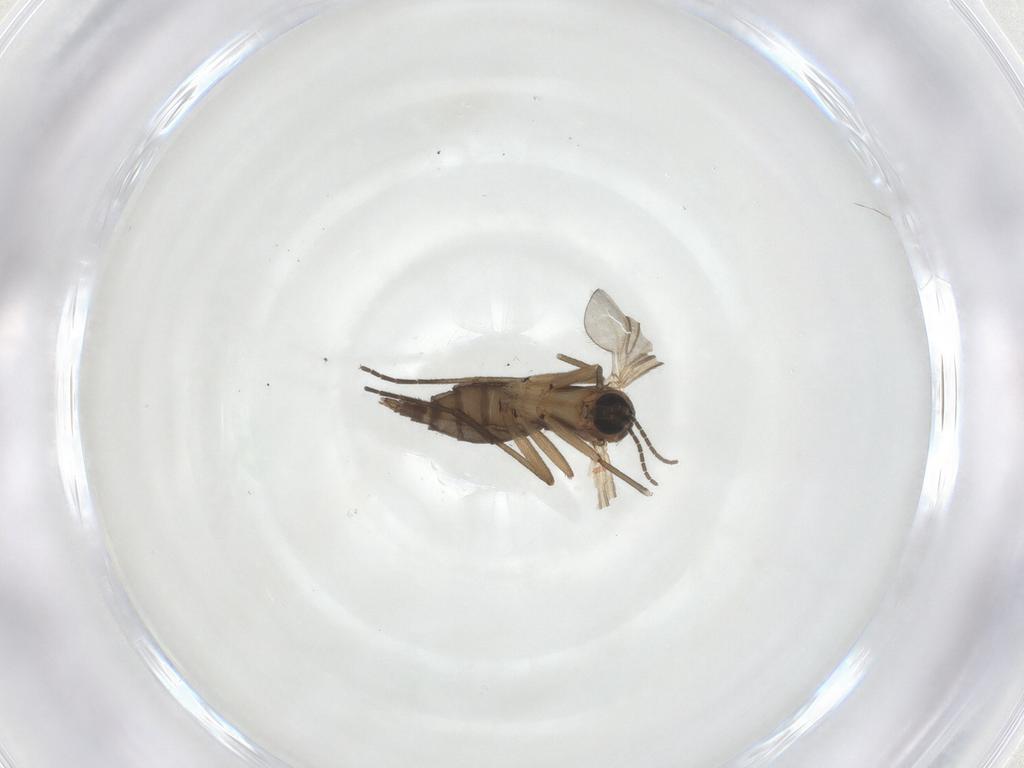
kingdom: Animalia
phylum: Arthropoda
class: Insecta
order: Diptera
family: Sciaridae
